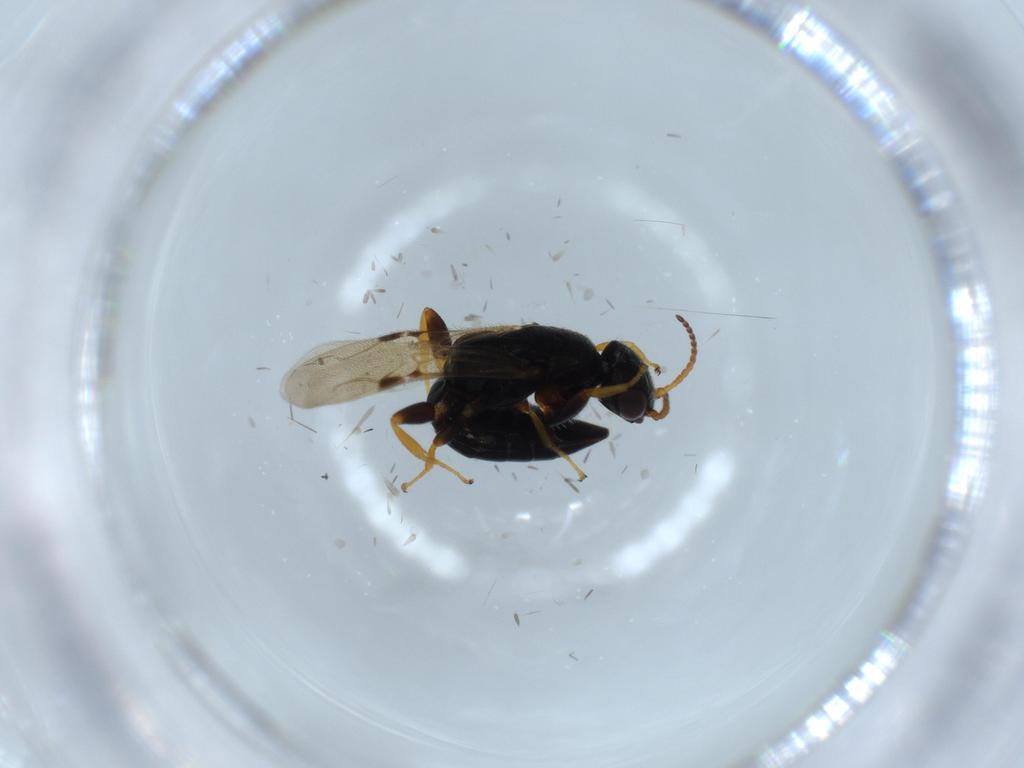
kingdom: Animalia
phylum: Arthropoda
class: Insecta
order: Hymenoptera
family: Bethylidae
